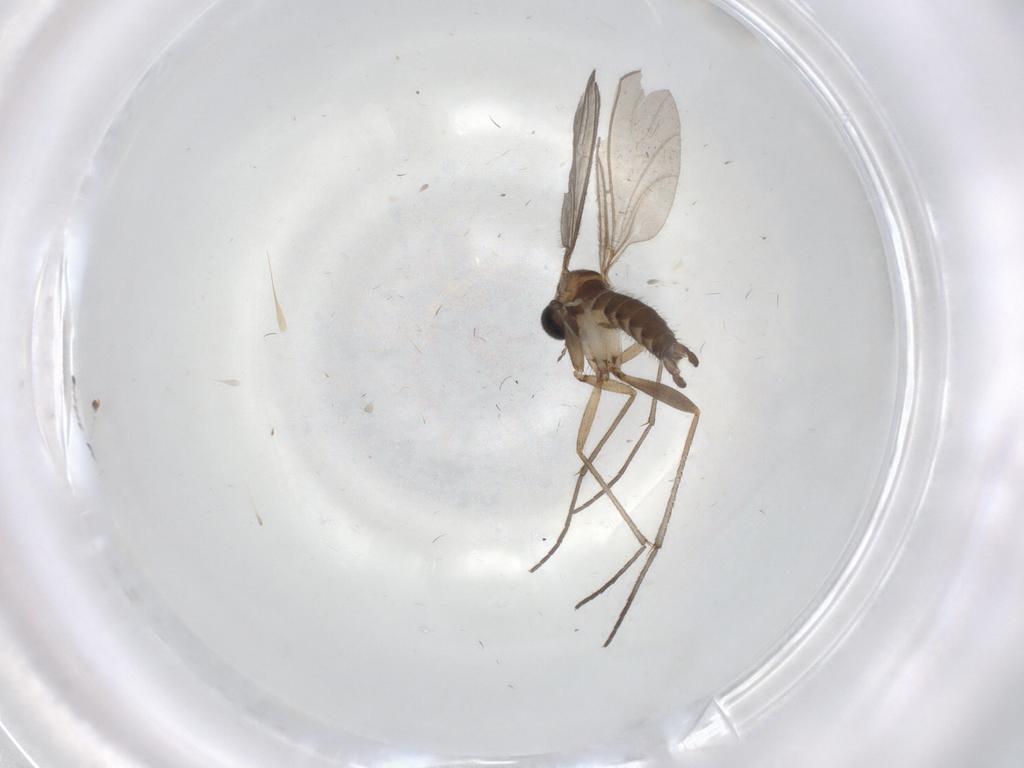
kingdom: Animalia
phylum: Arthropoda
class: Insecta
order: Diptera
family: Sciaridae
